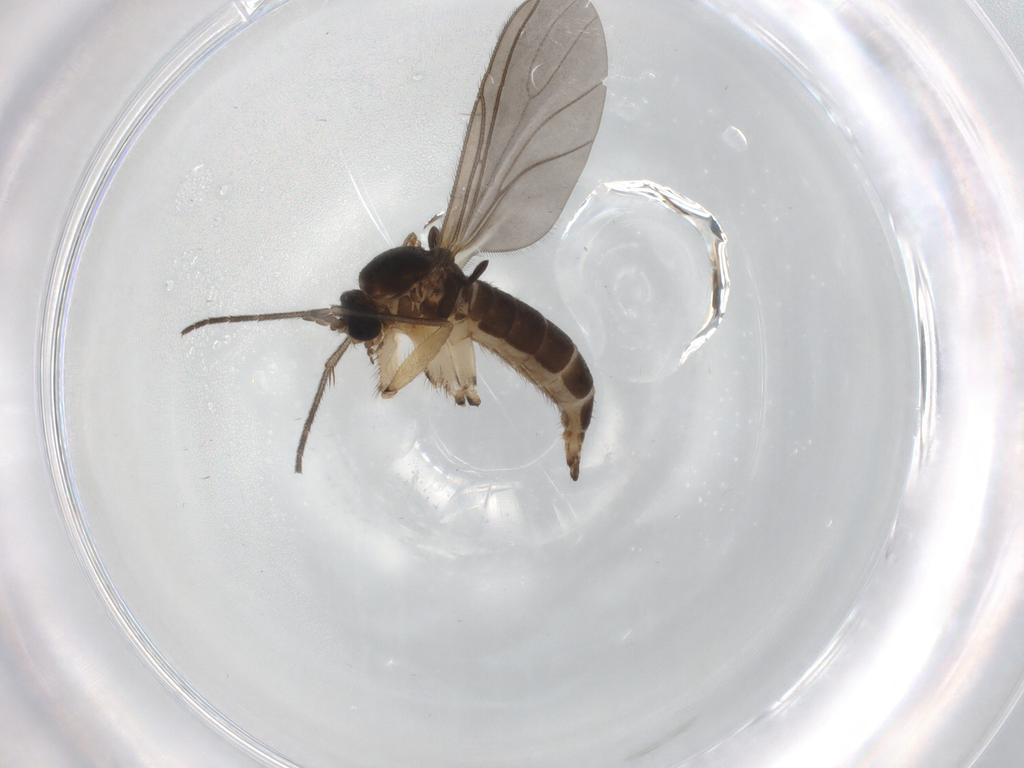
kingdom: Animalia
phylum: Arthropoda
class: Insecta
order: Diptera
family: Sciaridae
